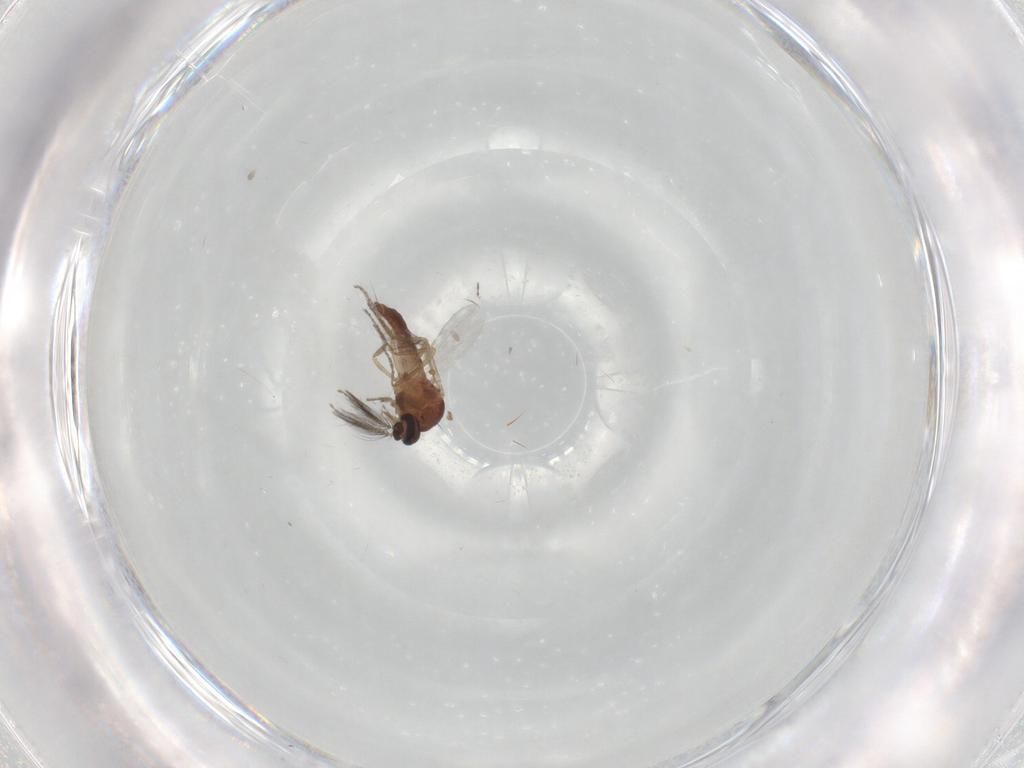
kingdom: Animalia
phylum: Arthropoda
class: Insecta
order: Diptera
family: Ceratopogonidae
